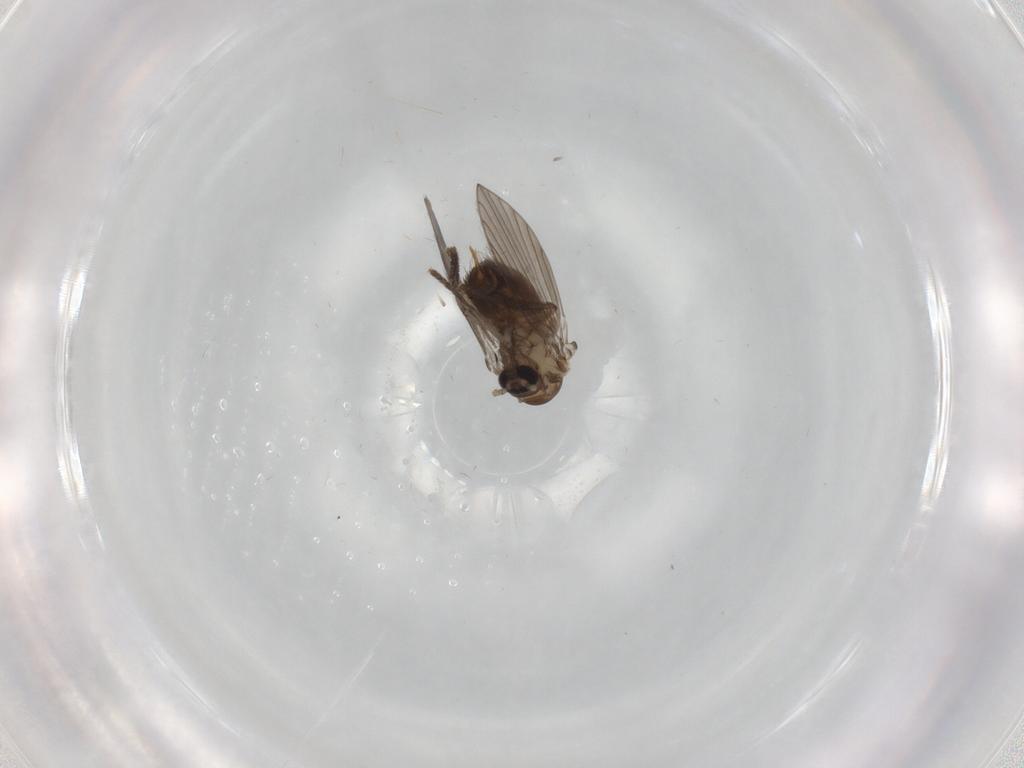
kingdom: Animalia
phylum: Arthropoda
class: Insecta
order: Diptera
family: Ceratopogonidae
